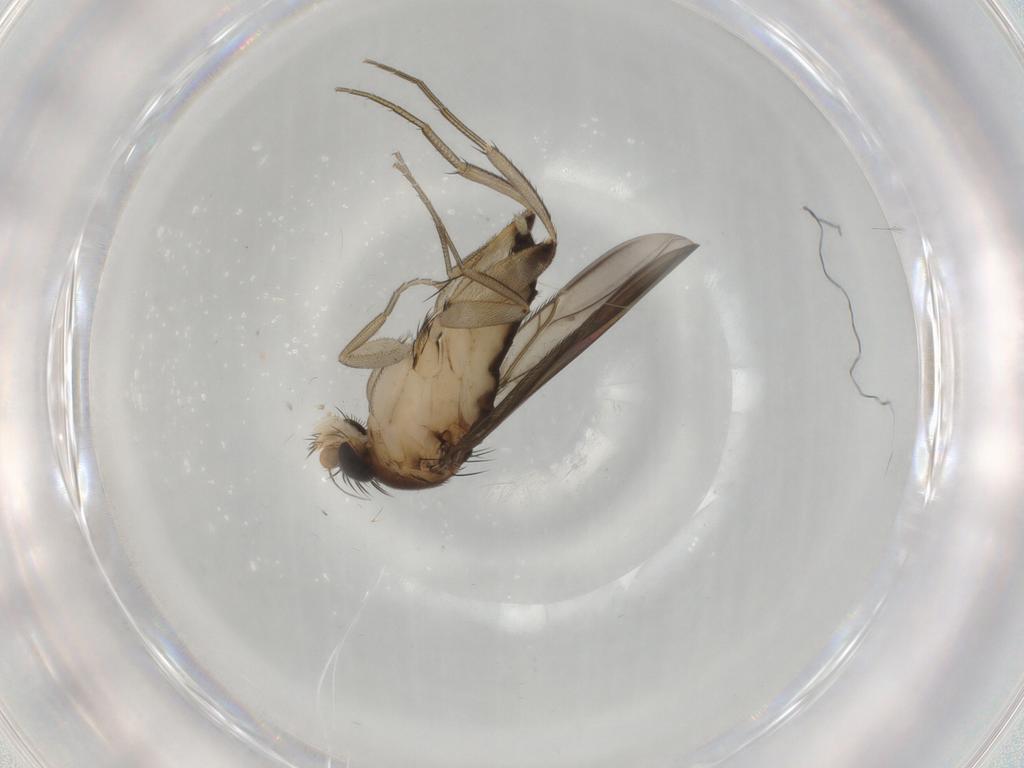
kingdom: Animalia
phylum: Arthropoda
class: Insecta
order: Diptera
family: Phoridae
